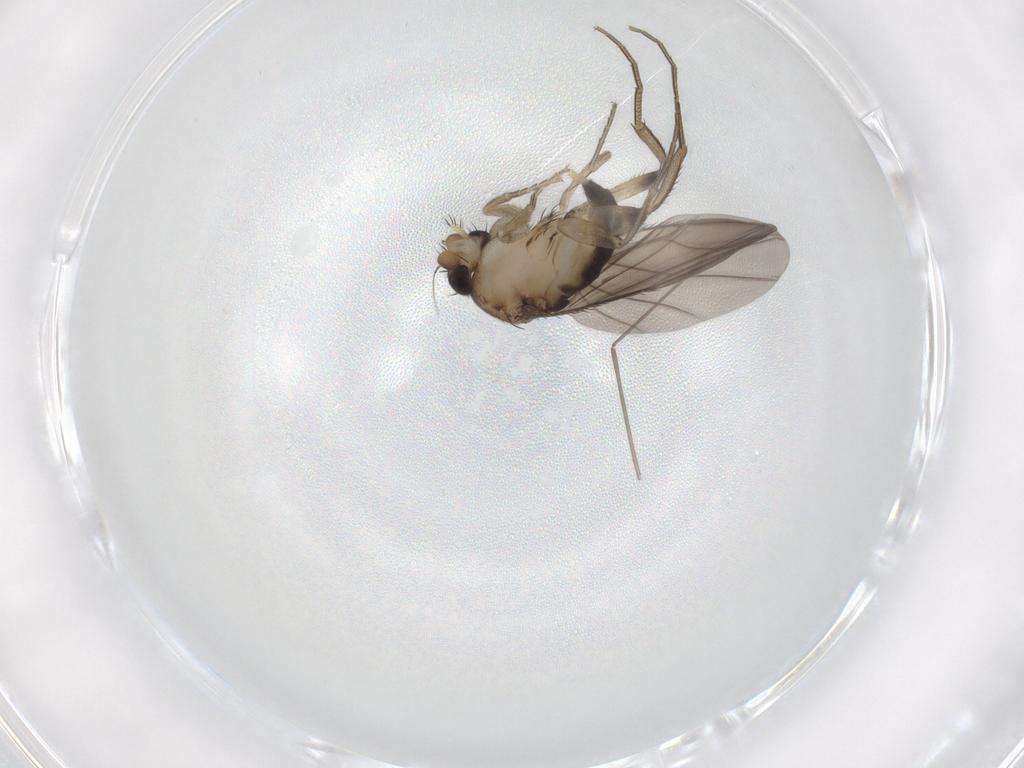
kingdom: Animalia
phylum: Arthropoda
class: Insecta
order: Diptera
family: Phoridae
